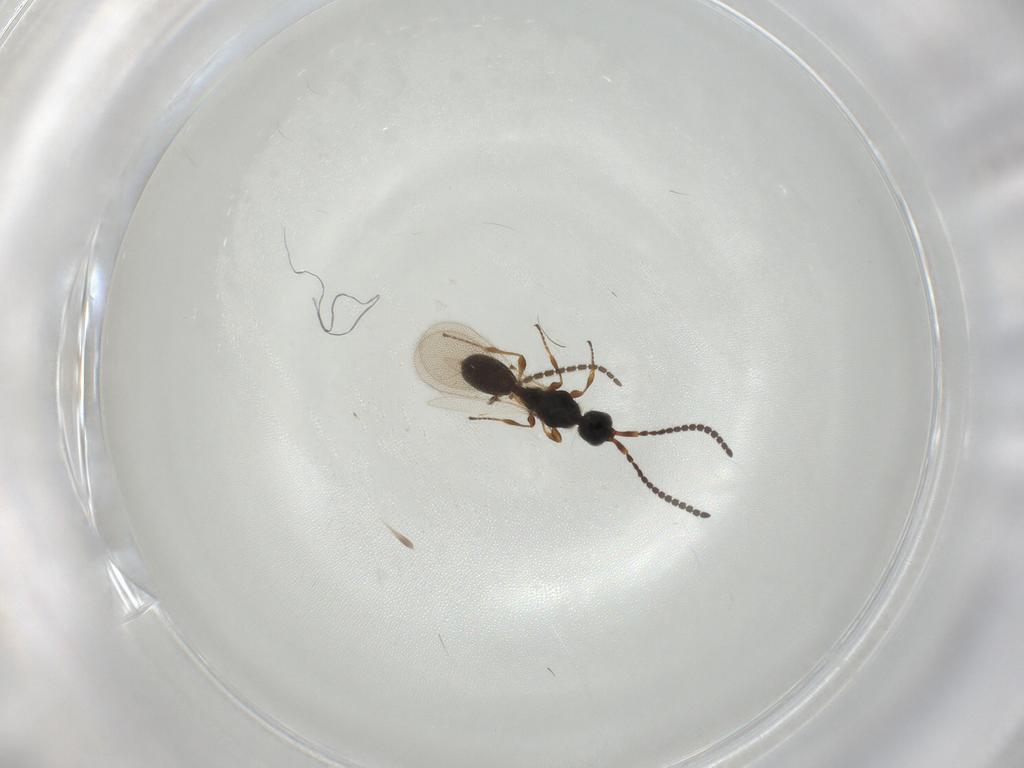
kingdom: Animalia
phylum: Arthropoda
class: Insecta
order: Hymenoptera
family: Diapriidae
